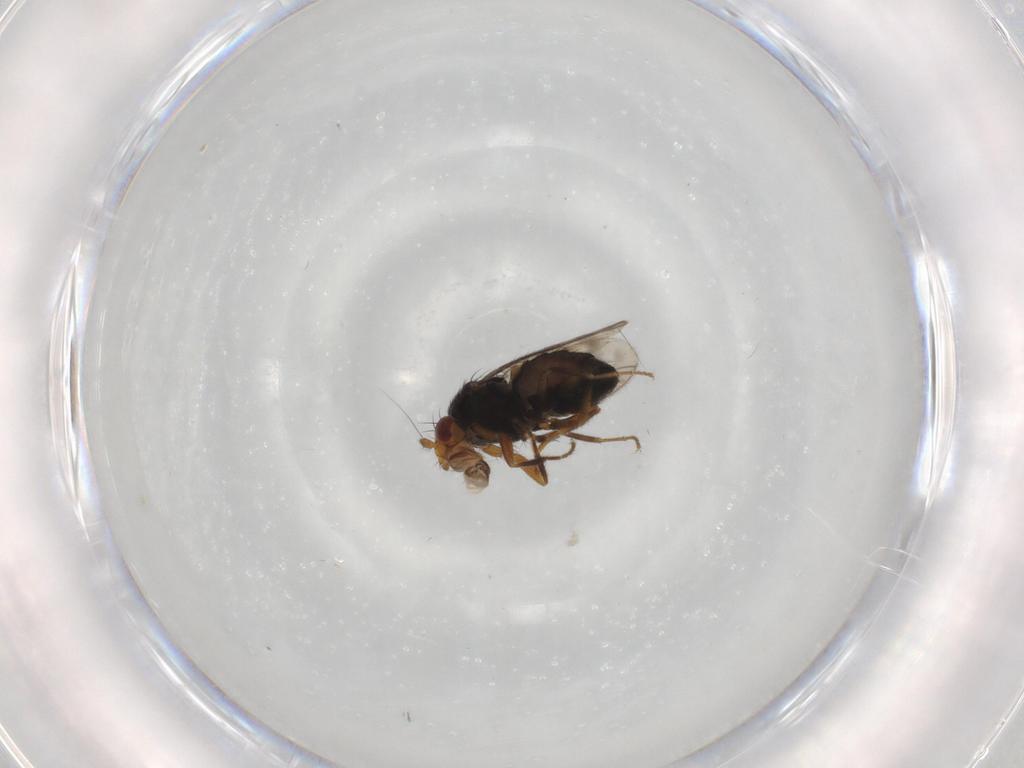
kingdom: Animalia
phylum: Arthropoda
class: Insecta
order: Diptera
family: Sphaeroceridae
